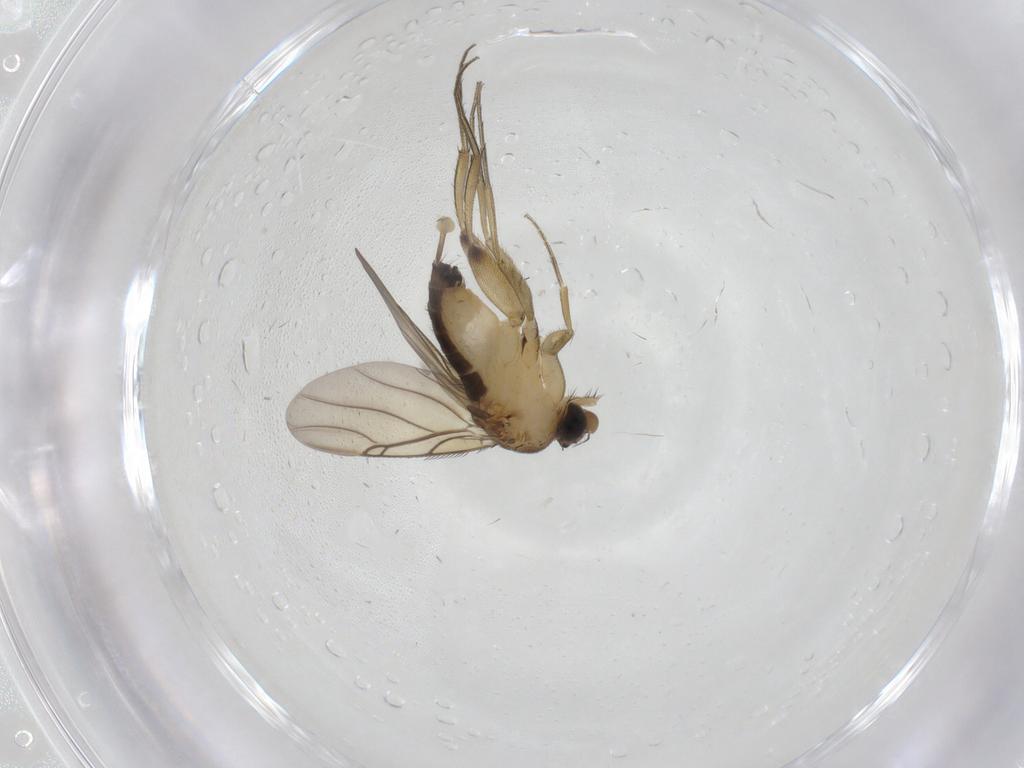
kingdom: Animalia
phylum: Arthropoda
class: Insecta
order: Diptera
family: Phoridae
